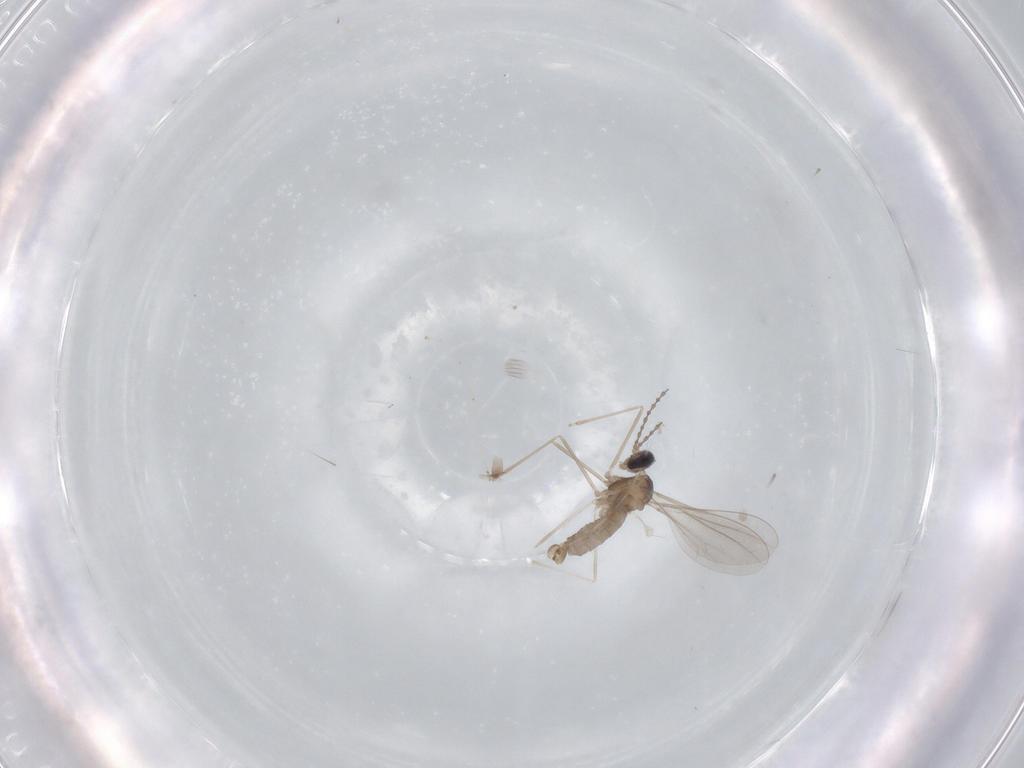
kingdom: Animalia
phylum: Arthropoda
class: Insecta
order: Diptera
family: Cecidomyiidae
